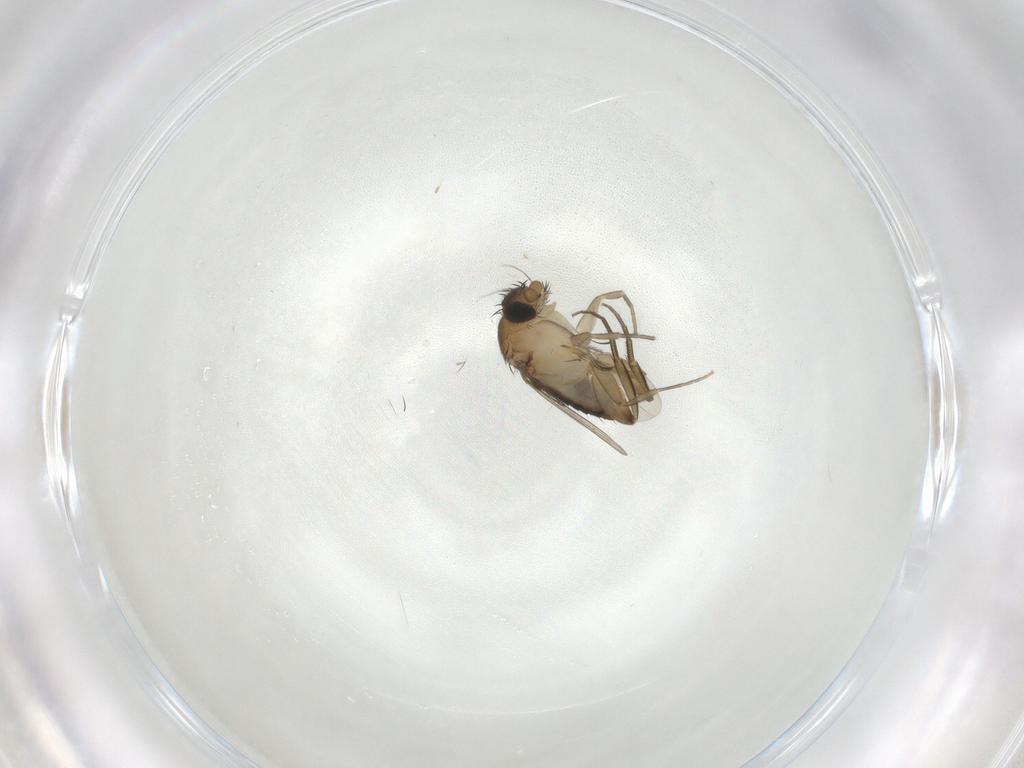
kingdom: Animalia
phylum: Arthropoda
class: Insecta
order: Diptera
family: Phoridae
